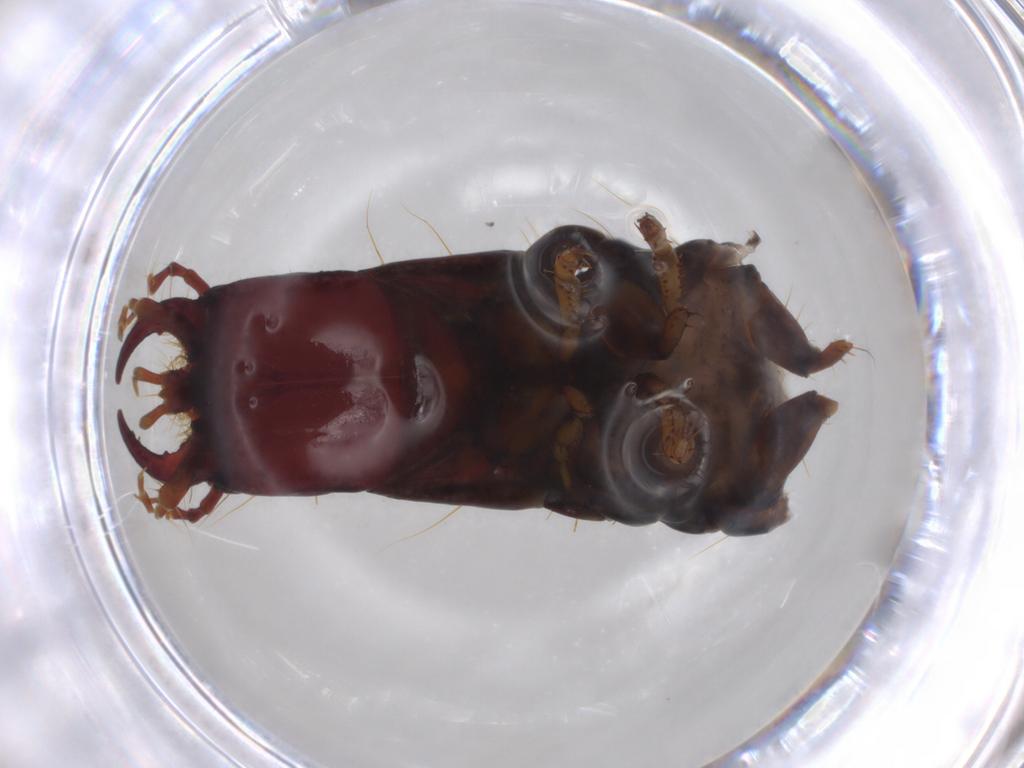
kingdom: Animalia
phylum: Arthropoda
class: Insecta
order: Coleoptera
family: Carabidae
